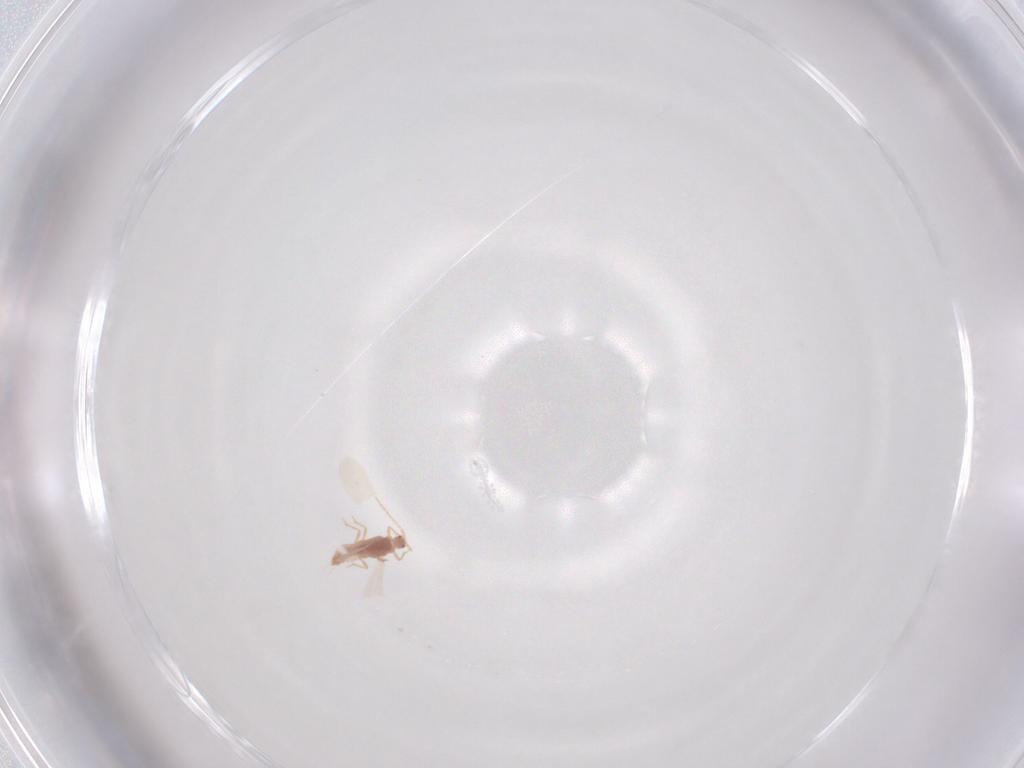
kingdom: Animalia
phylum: Arthropoda
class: Insecta
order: Hemiptera
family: Pseudococcidae
